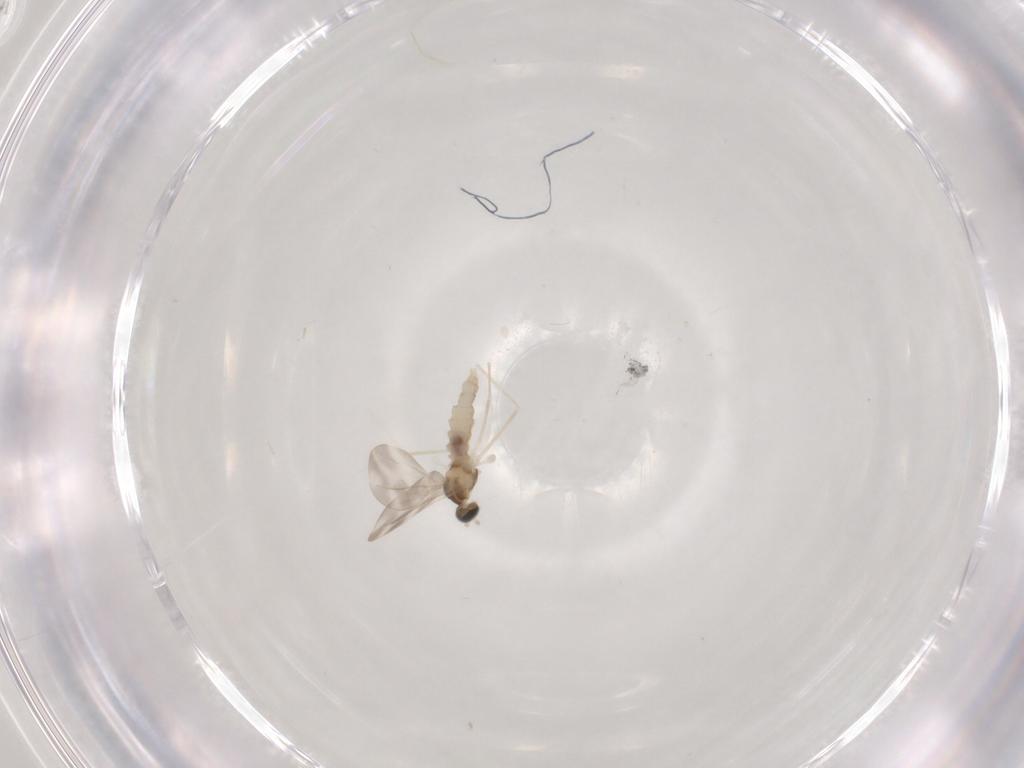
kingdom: Animalia
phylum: Arthropoda
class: Insecta
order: Diptera
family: Cecidomyiidae
